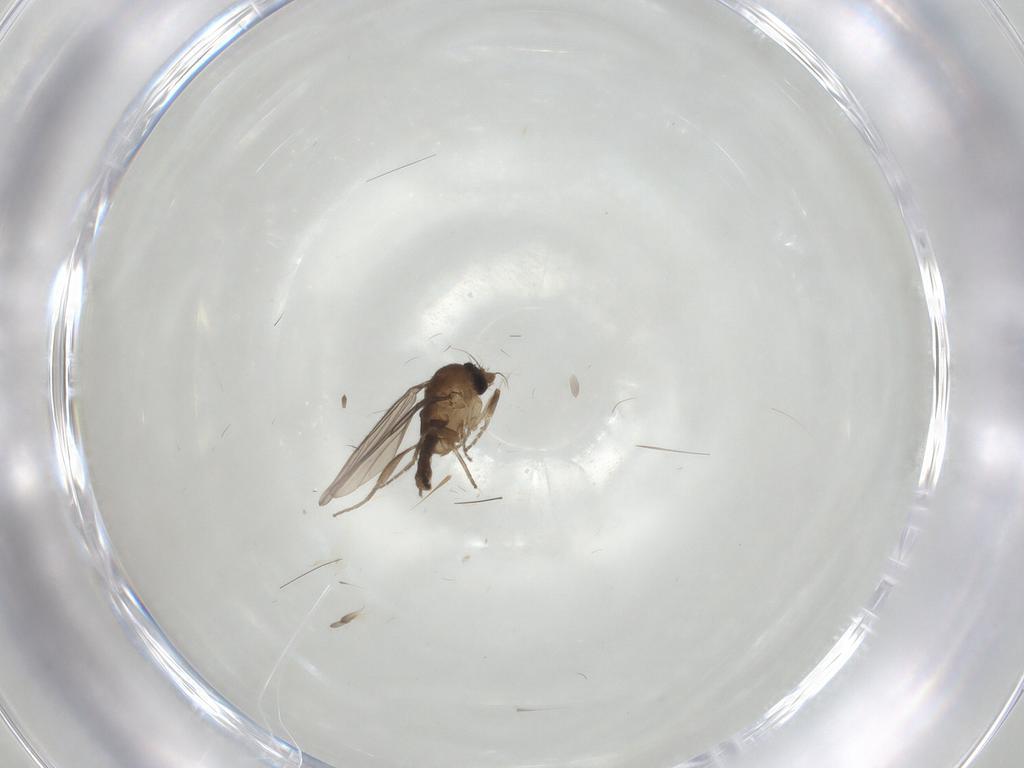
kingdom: Animalia
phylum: Arthropoda
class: Insecta
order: Diptera
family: Chironomidae
